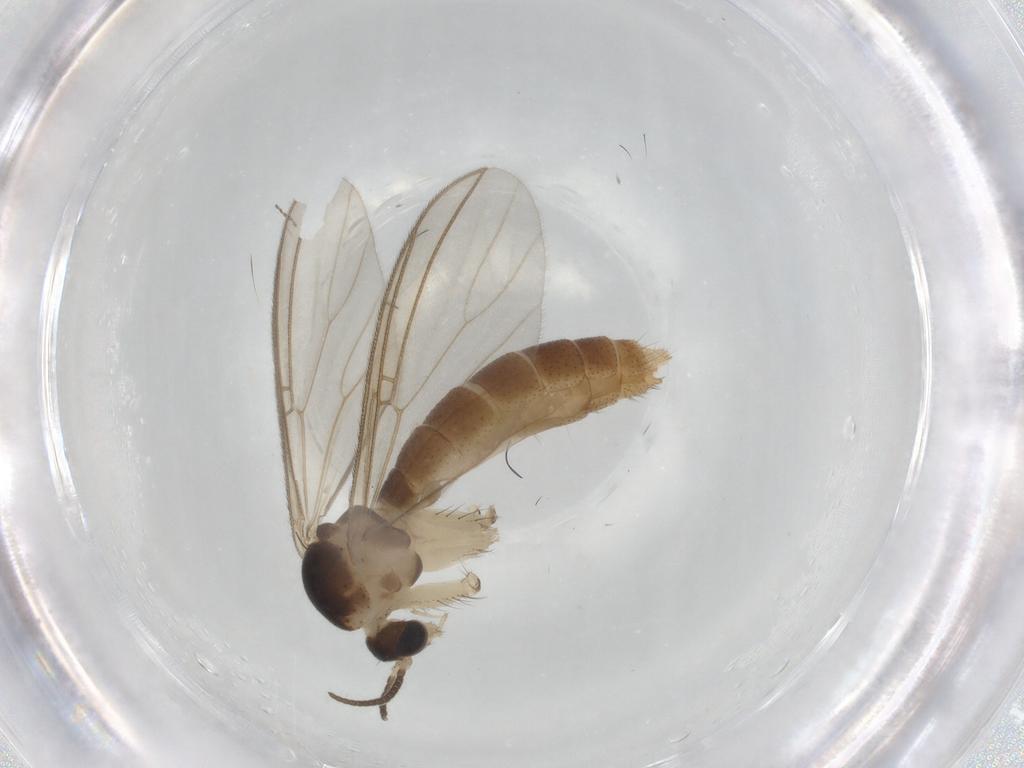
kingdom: Animalia
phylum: Arthropoda
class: Insecta
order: Diptera
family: Mycetophilidae
